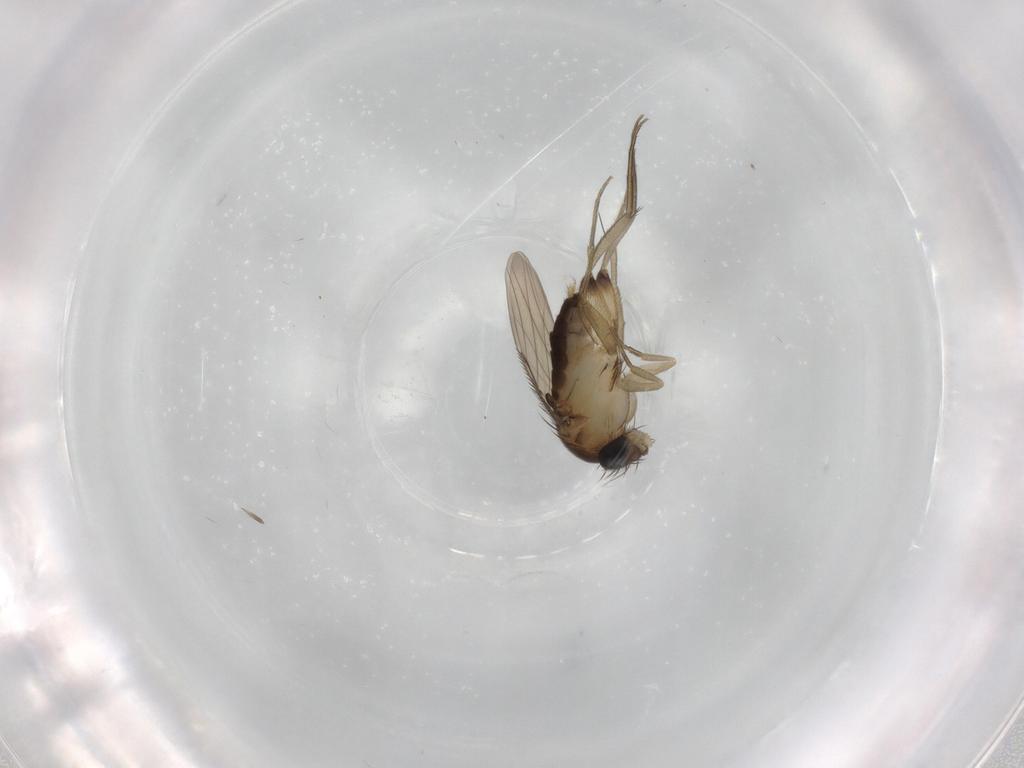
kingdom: Animalia
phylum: Arthropoda
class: Insecta
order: Diptera
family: Phoridae
